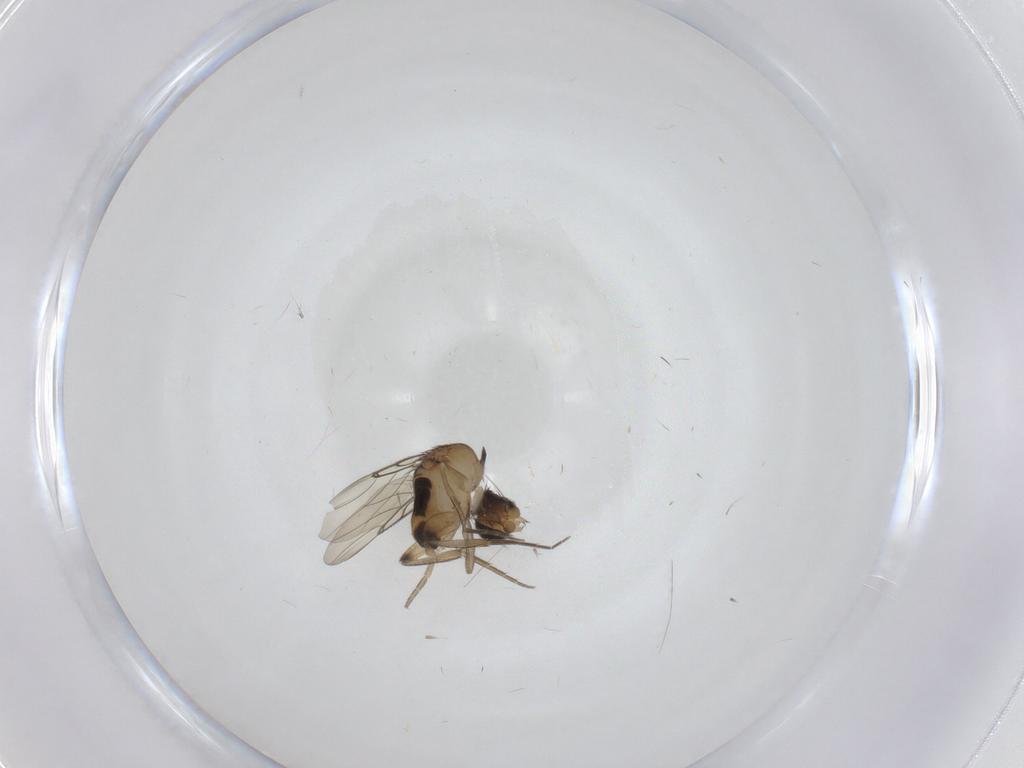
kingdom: Animalia
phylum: Arthropoda
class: Insecta
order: Diptera
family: Phoridae
